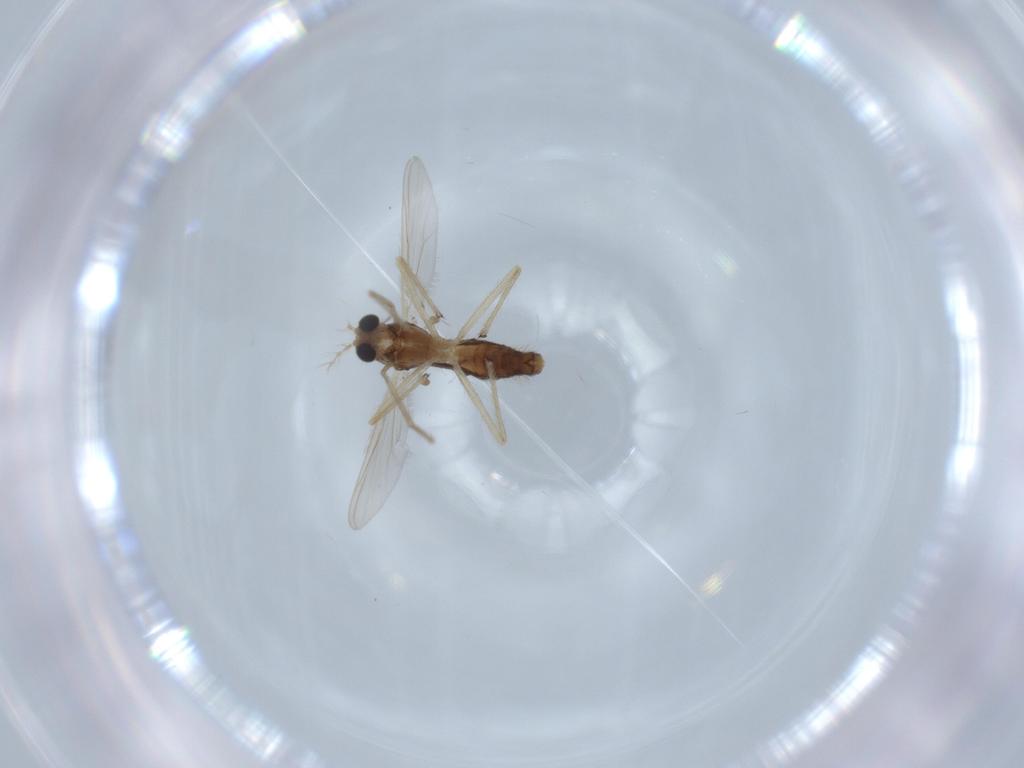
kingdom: Animalia
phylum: Arthropoda
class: Insecta
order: Diptera
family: Chironomidae
